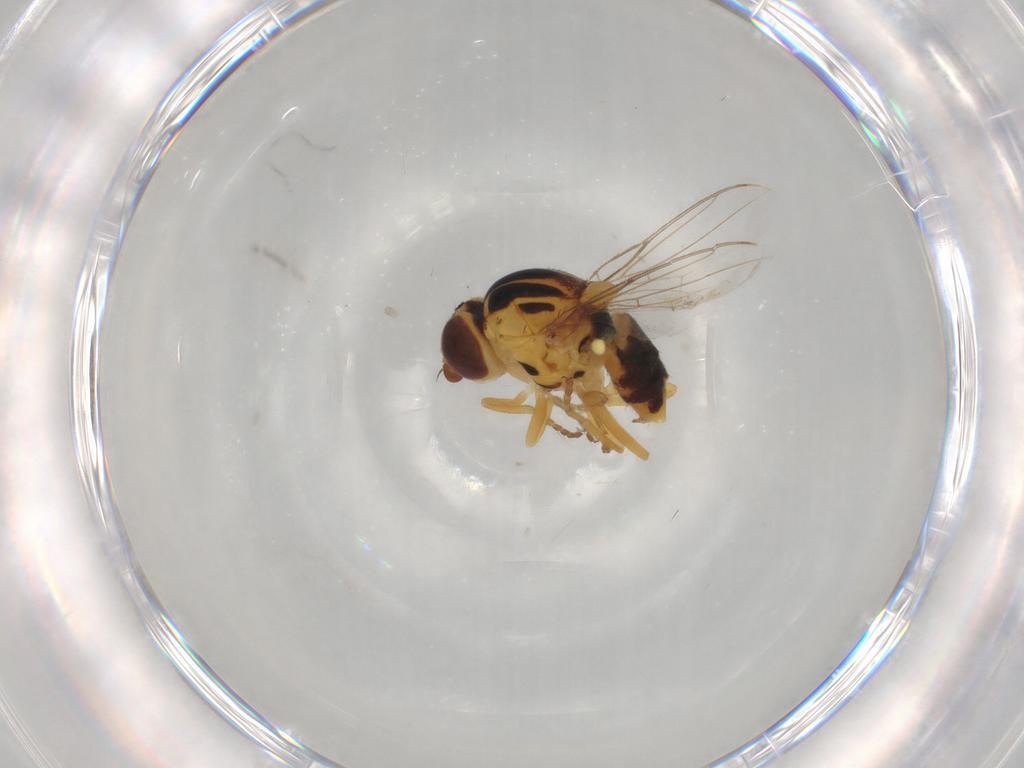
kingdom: Animalia
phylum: Arthropoda
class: Insecta
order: Diptera
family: Chloropidae
